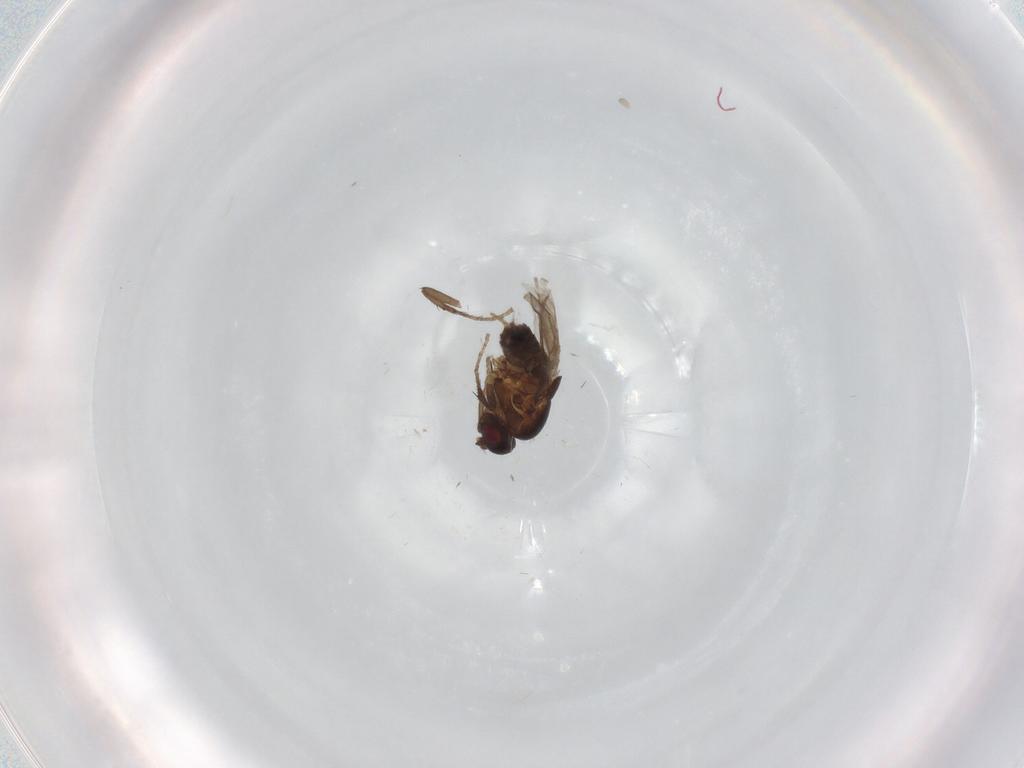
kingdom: Animalia
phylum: Arthropoda
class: Insecta
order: Diptera
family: Sphaeroceridae
